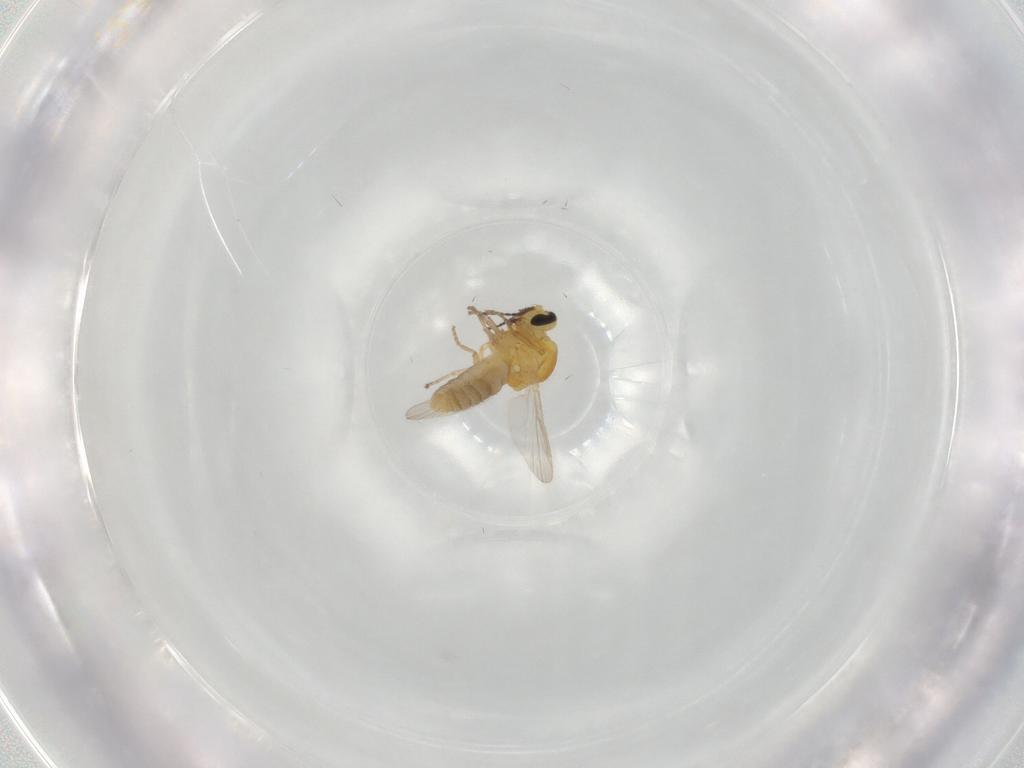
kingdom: Animalia
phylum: Arthropoda
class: Insecta
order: Diptera
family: Ceratopogonidae
